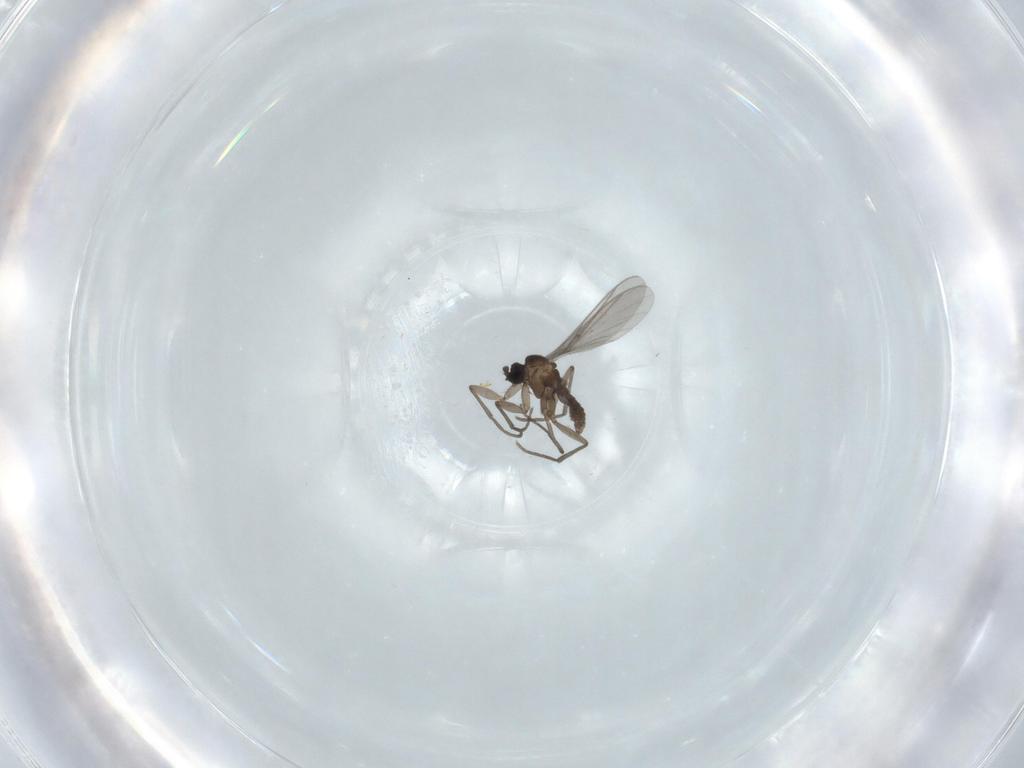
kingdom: Animalia
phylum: Arthropoda
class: Insecta
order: Diptera
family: Sciaridae
